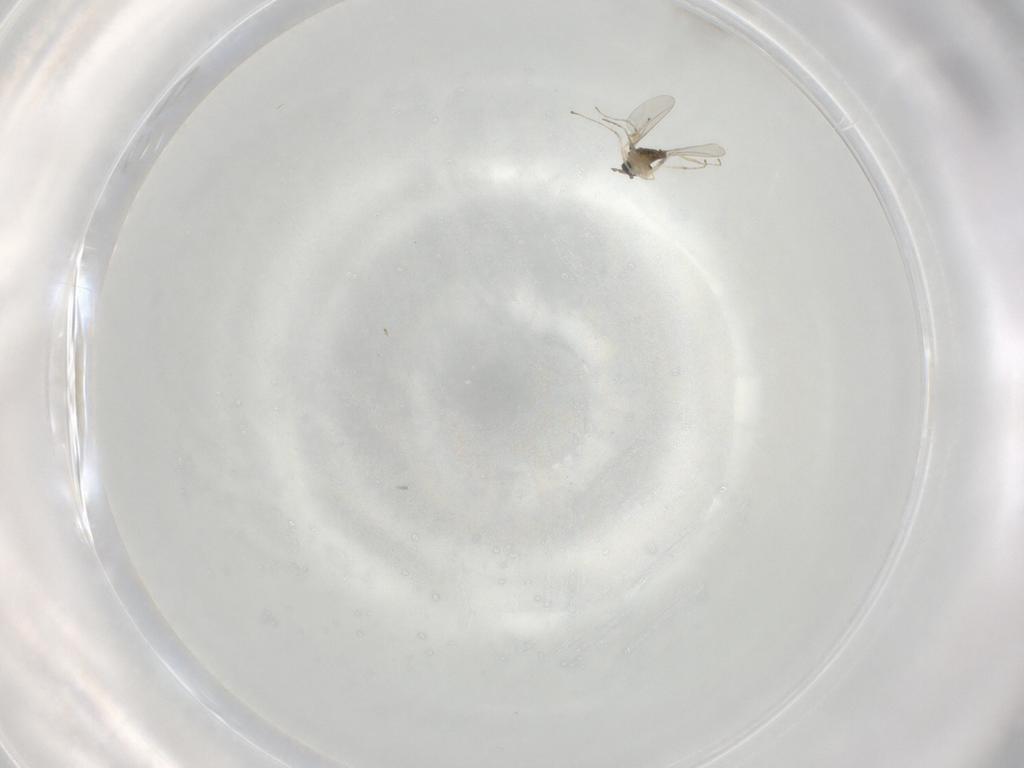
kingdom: Animalia
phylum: Arthropoda
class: Insecta
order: Diptera
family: Cecidomyiidae
